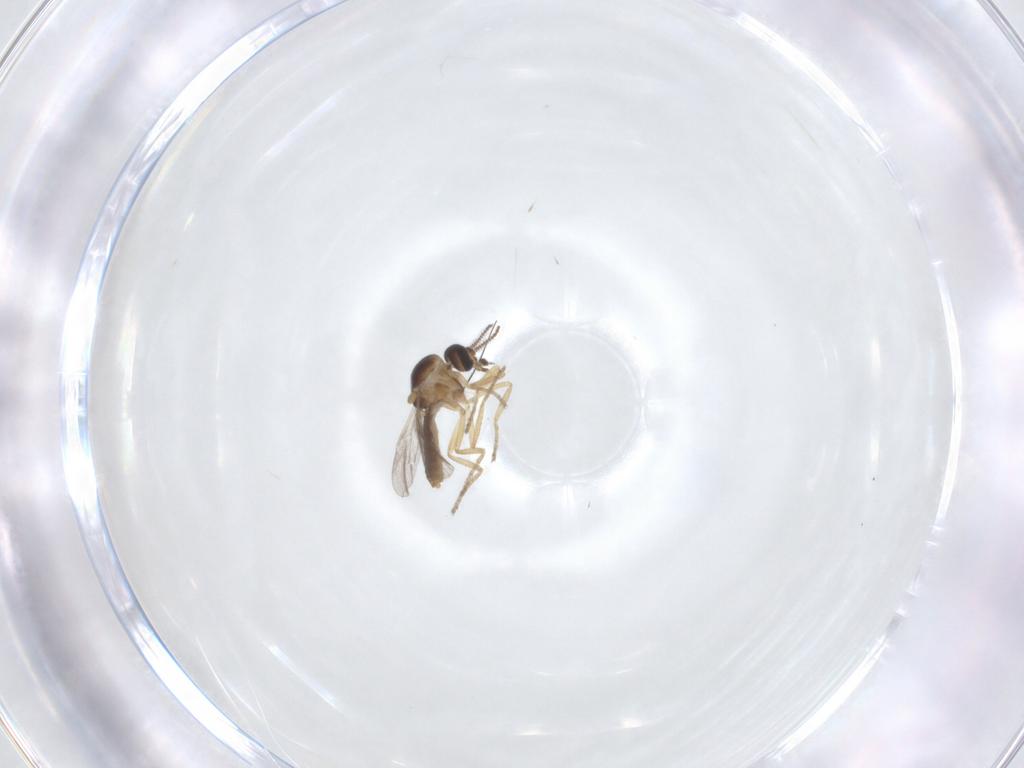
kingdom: Animalia
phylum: Arthropoda
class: Insecta
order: Diptera
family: Ceratopogonidae
